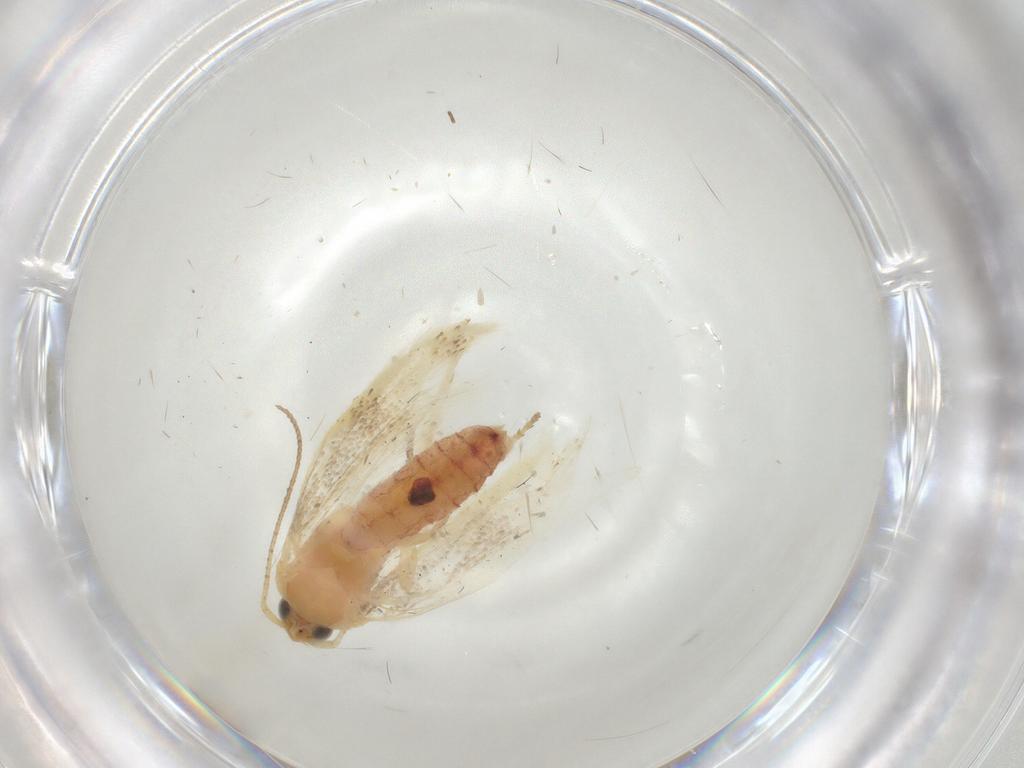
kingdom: Animalia
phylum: Arthropoda
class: Insecta
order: Lepidoptera
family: Argyresthiidae
